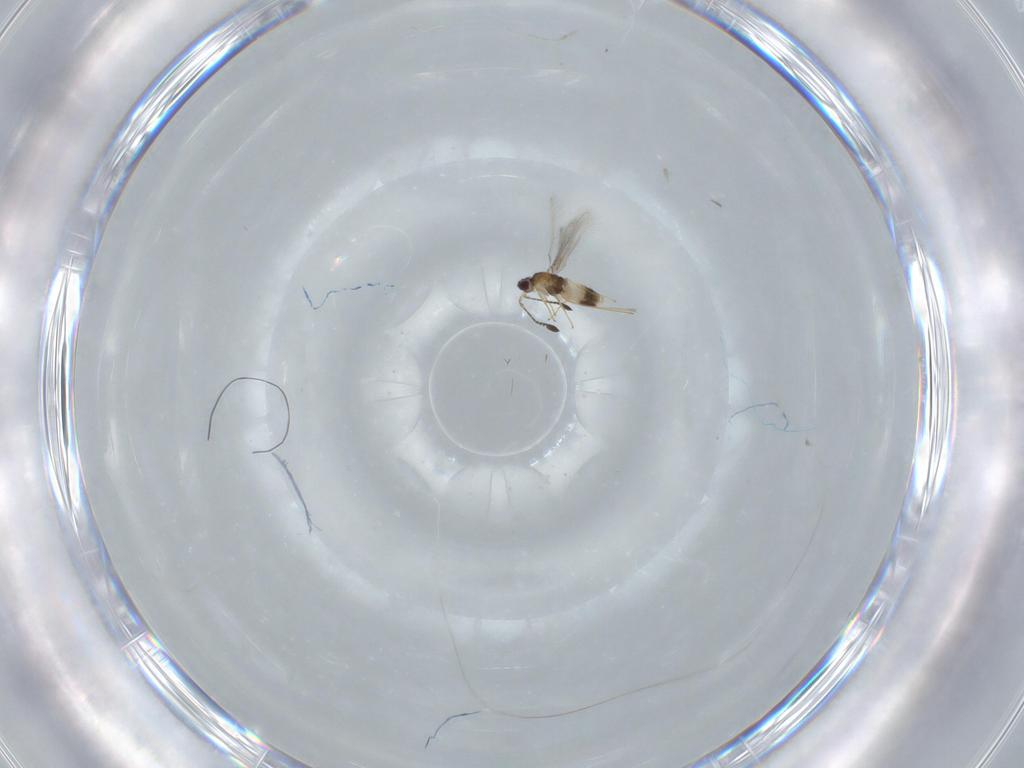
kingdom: Animalia
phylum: Arthropoda
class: Insecta
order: Hymenoptera
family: Mymaridae
